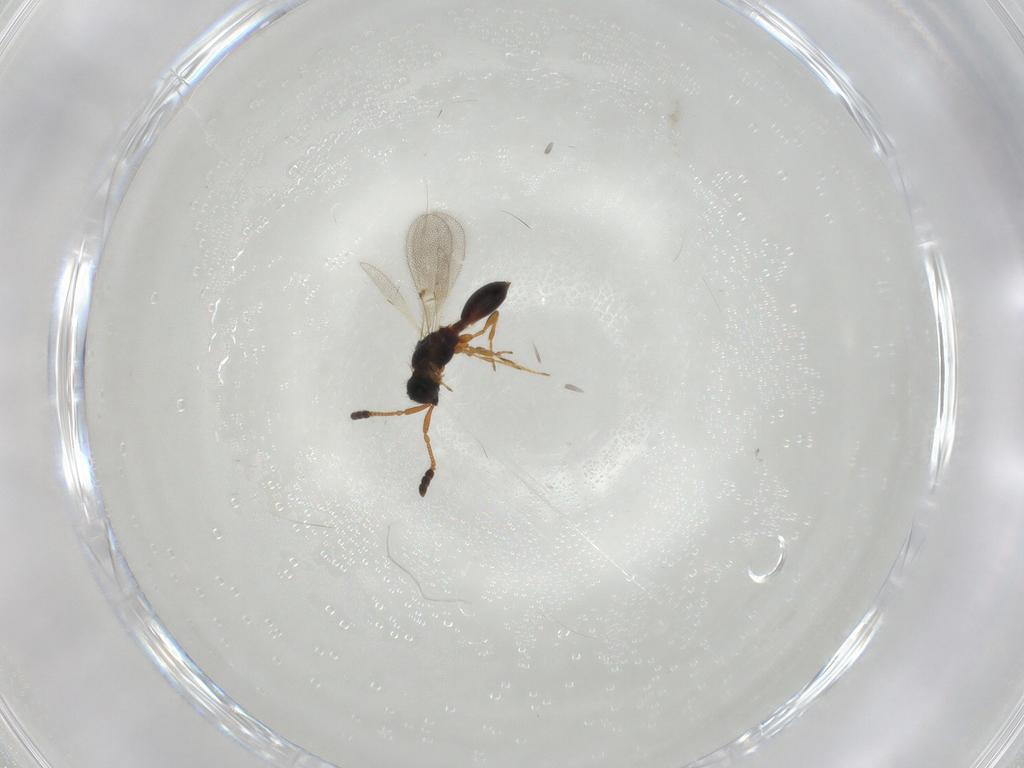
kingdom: Animalia
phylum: Arthropoda
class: Insecta
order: Hymenoptera
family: Diapriidae
